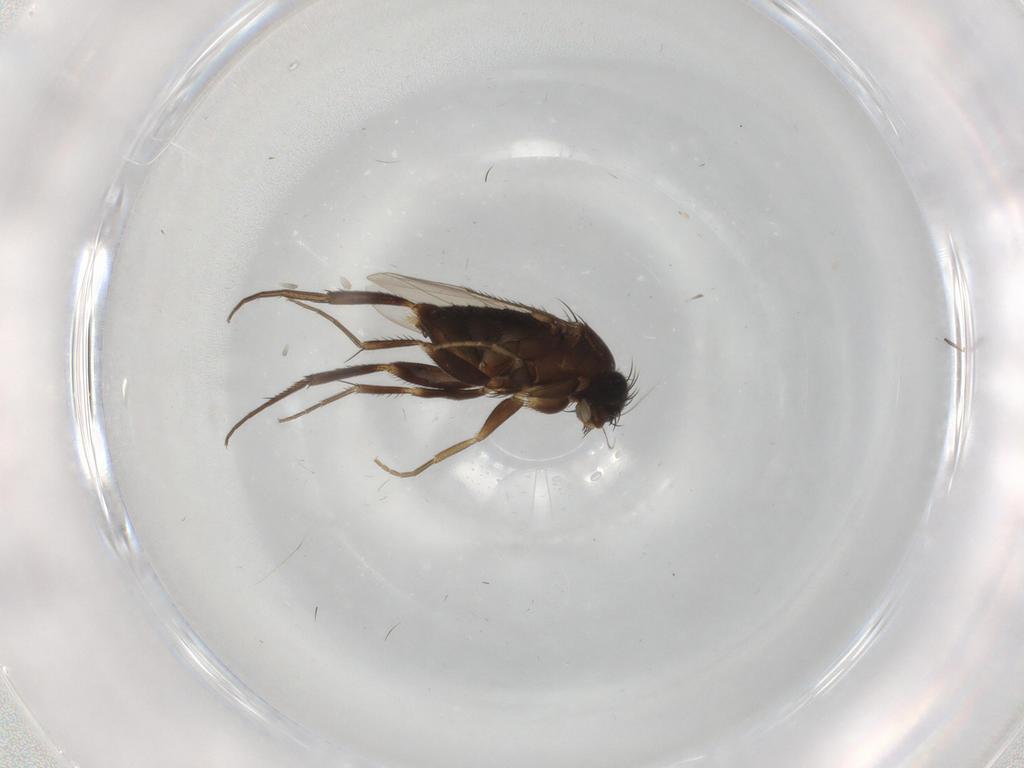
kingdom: Animalia
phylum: Arthropoda
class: Insecta
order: Diptera
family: Phoridae
